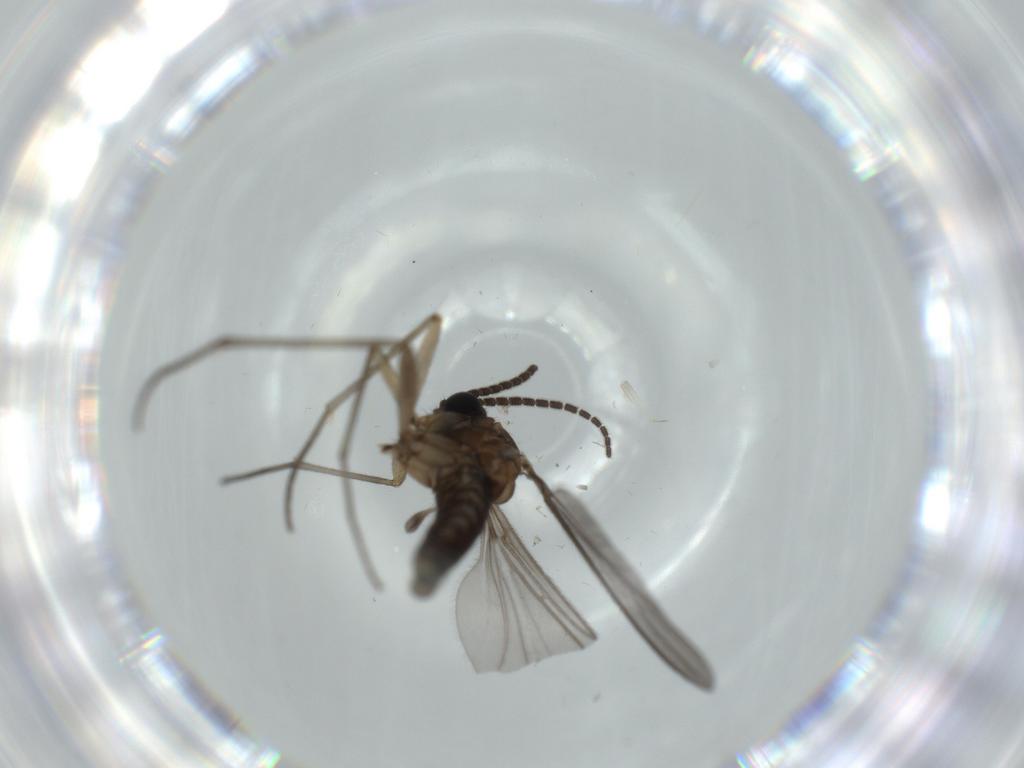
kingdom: Animalia
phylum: Arthropoda
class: Insecta
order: Diptera
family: Sciaridae
